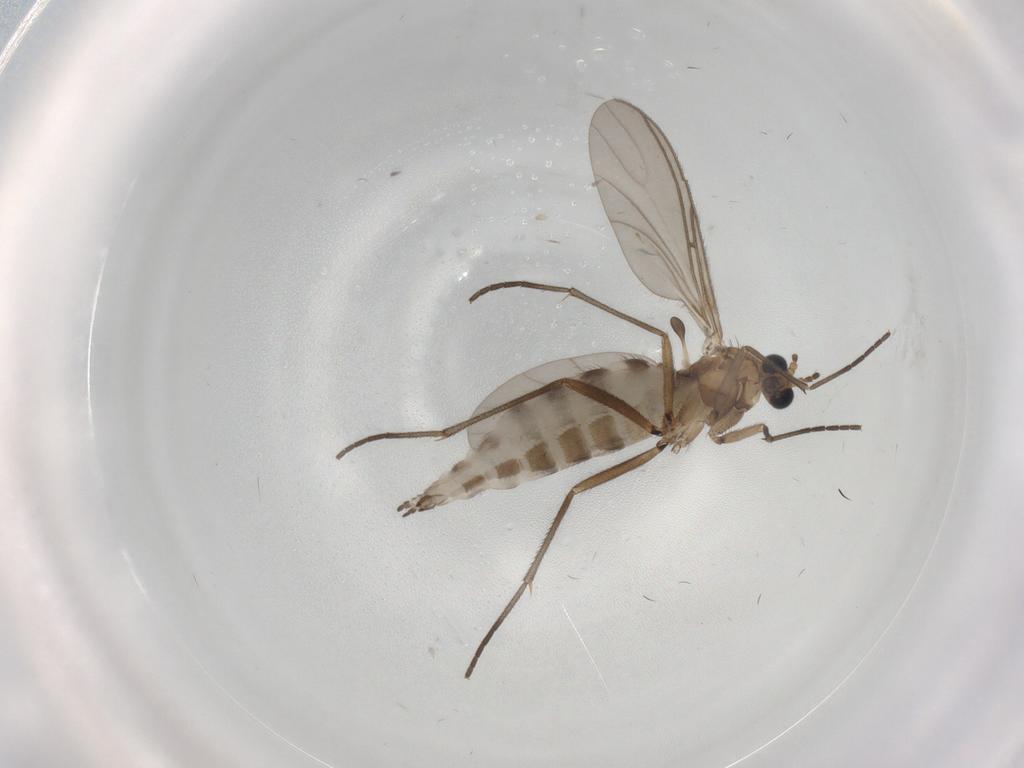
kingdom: Animalia
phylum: Arthropoda
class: Insecta
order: Diptera
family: Sciaridae
